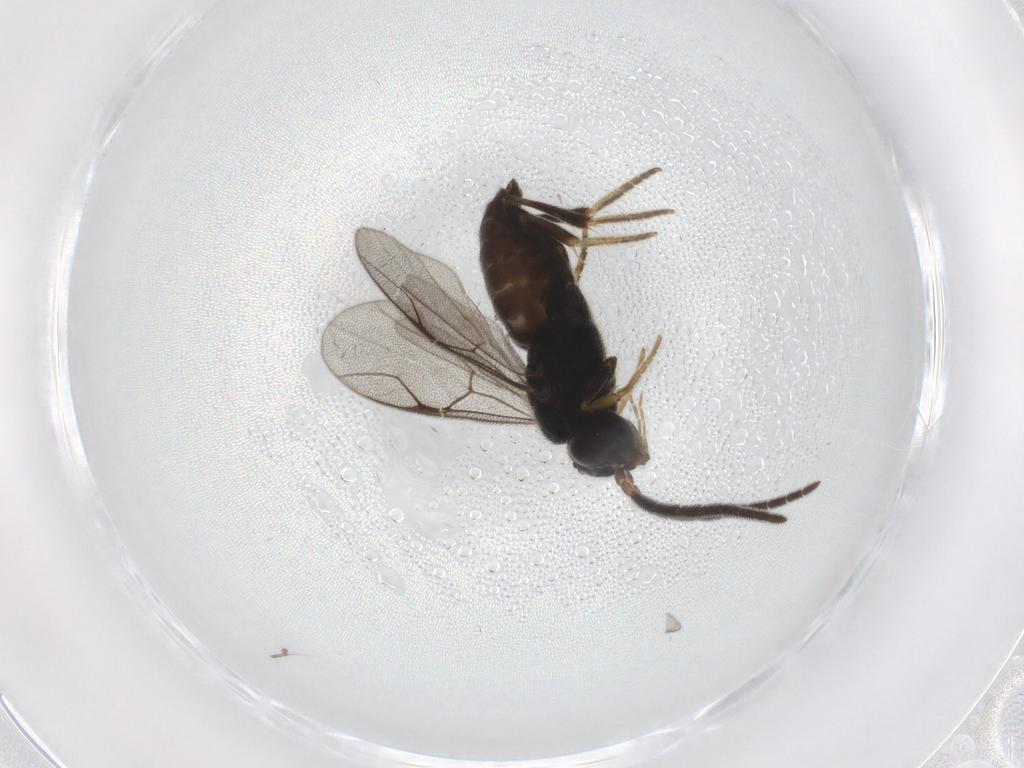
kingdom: Animalia
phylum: Arthropoda
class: Insecta
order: Hymenoptera
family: Dryinidae
